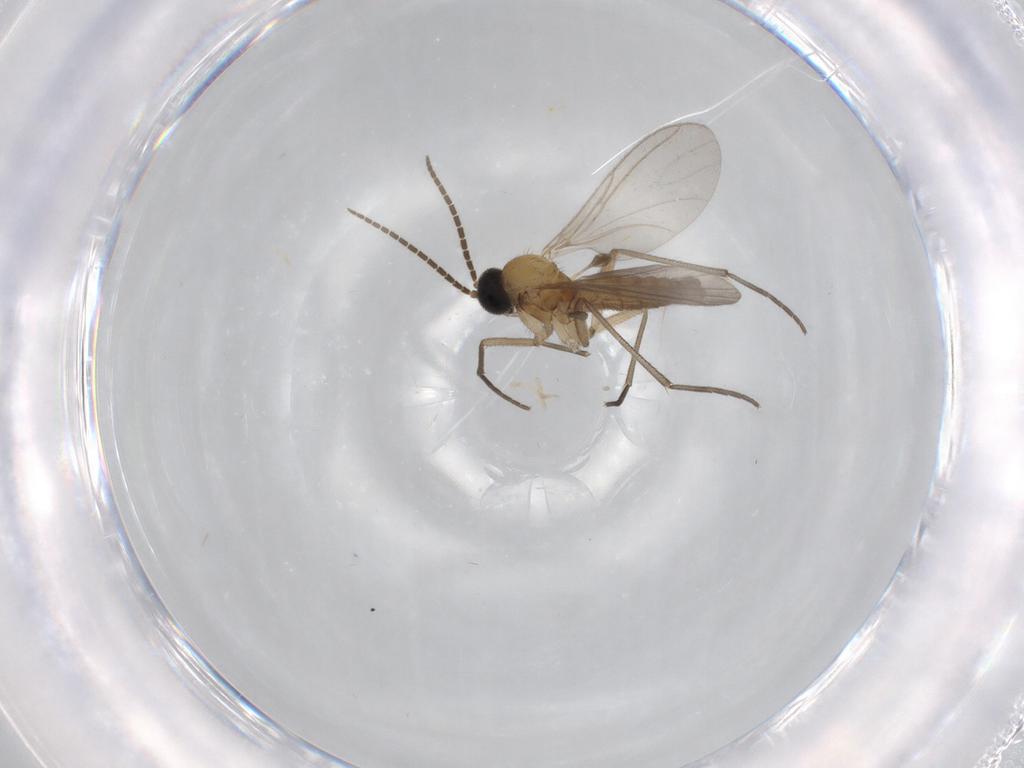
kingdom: Animalia
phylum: Arthropoda
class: Insecta
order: Diptera
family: Sciaridae
